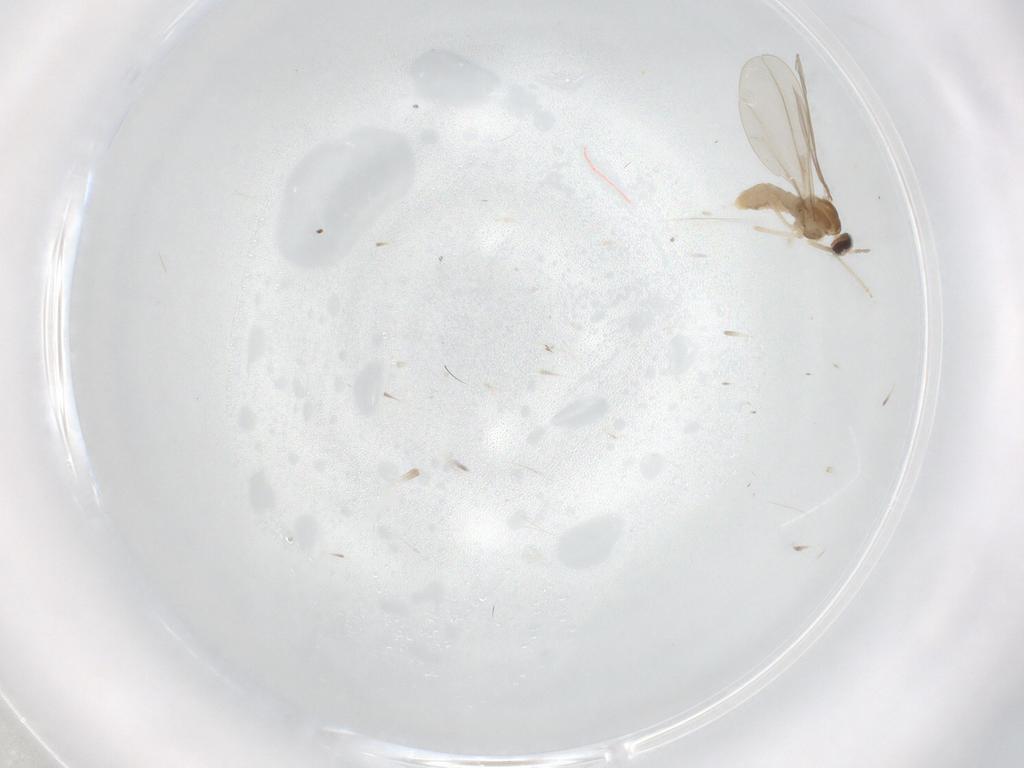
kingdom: Animalia
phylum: Arthropoda
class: Insecta
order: Diptera
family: Cecidomyiidae
